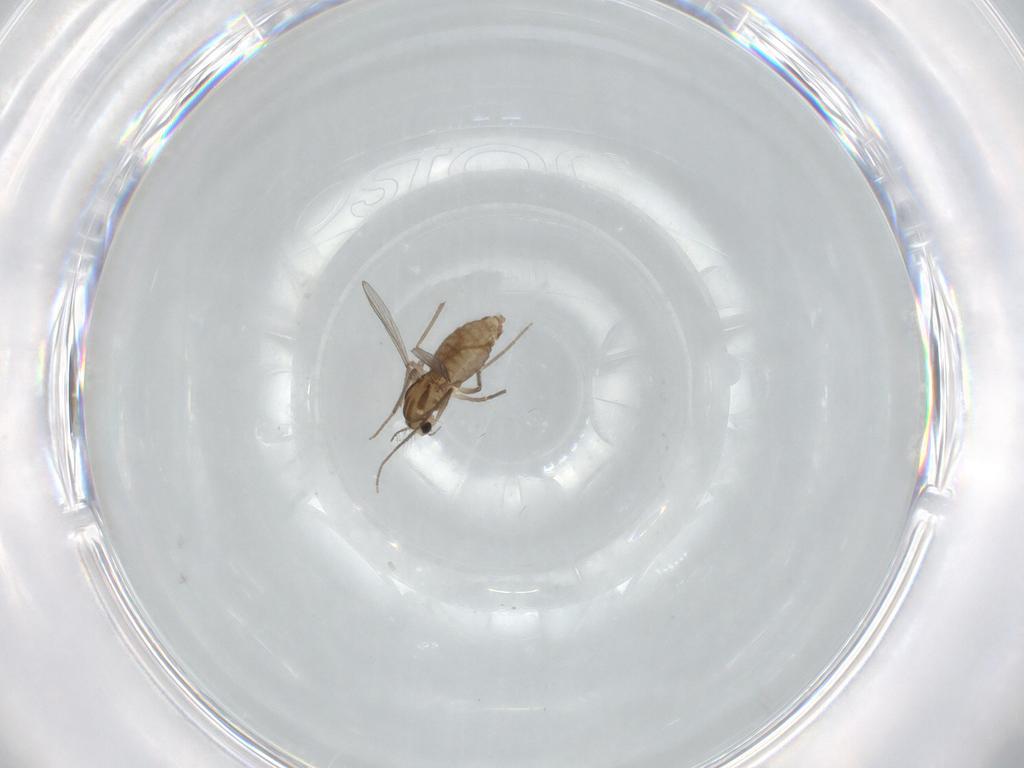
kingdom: Animalia
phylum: Arthropoda
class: Insecta
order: Diptera
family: Chironomidae
